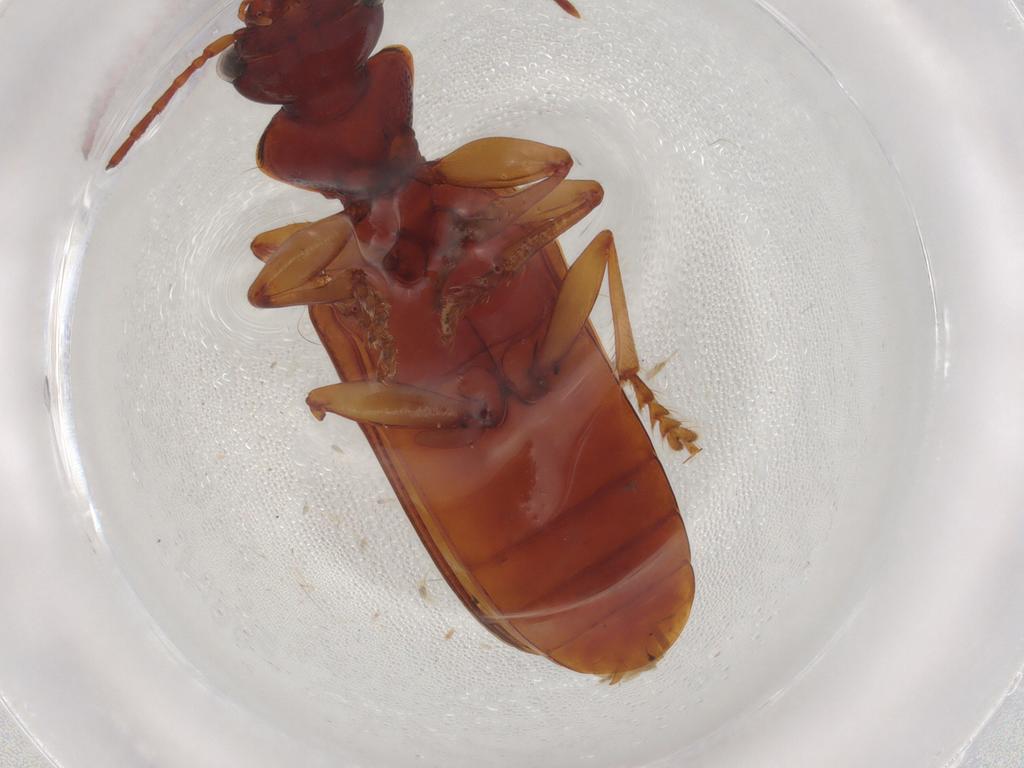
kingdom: Animalia
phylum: Arthropoda
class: Insecta
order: Coleoptera
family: Carabidae
